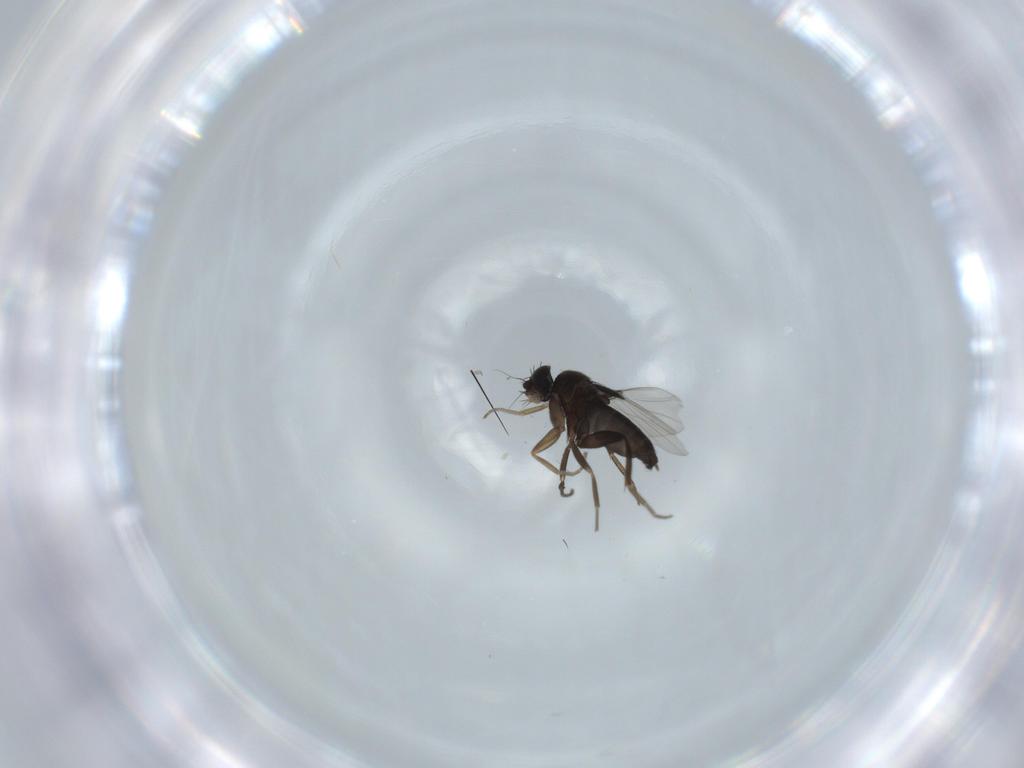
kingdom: Animalia
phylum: Arthropoda
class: Insecta
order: Diptera
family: Phoridae
